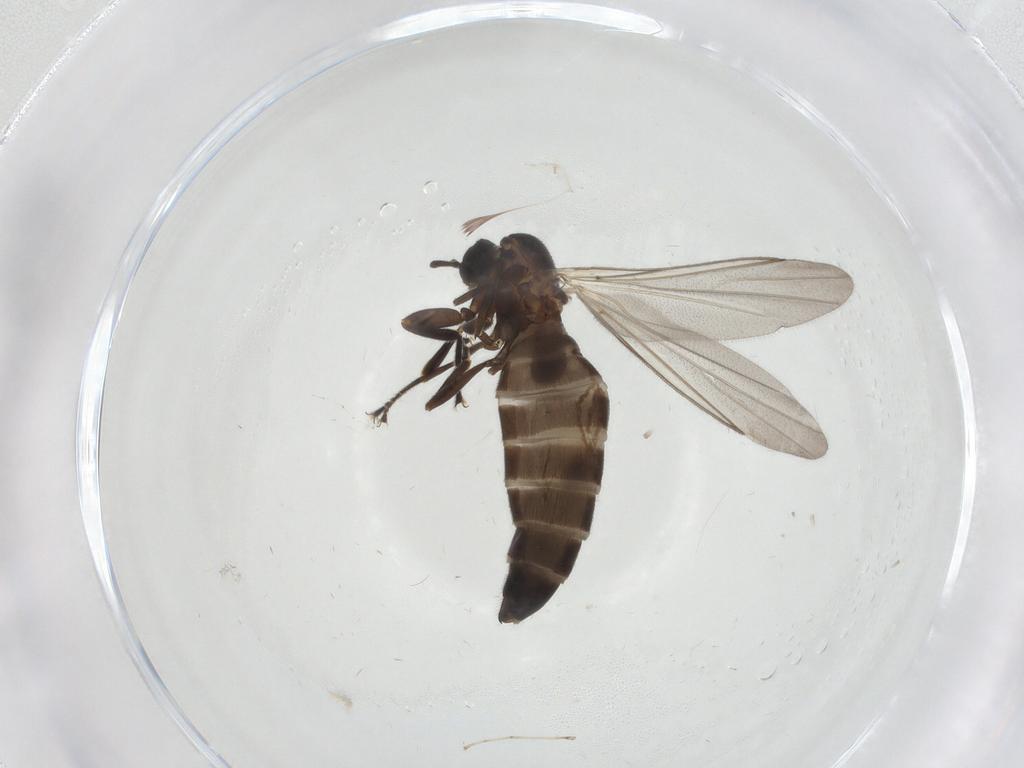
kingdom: Animalia
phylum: Arthropoda
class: Insecta
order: Diptera
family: Scatopsidae
